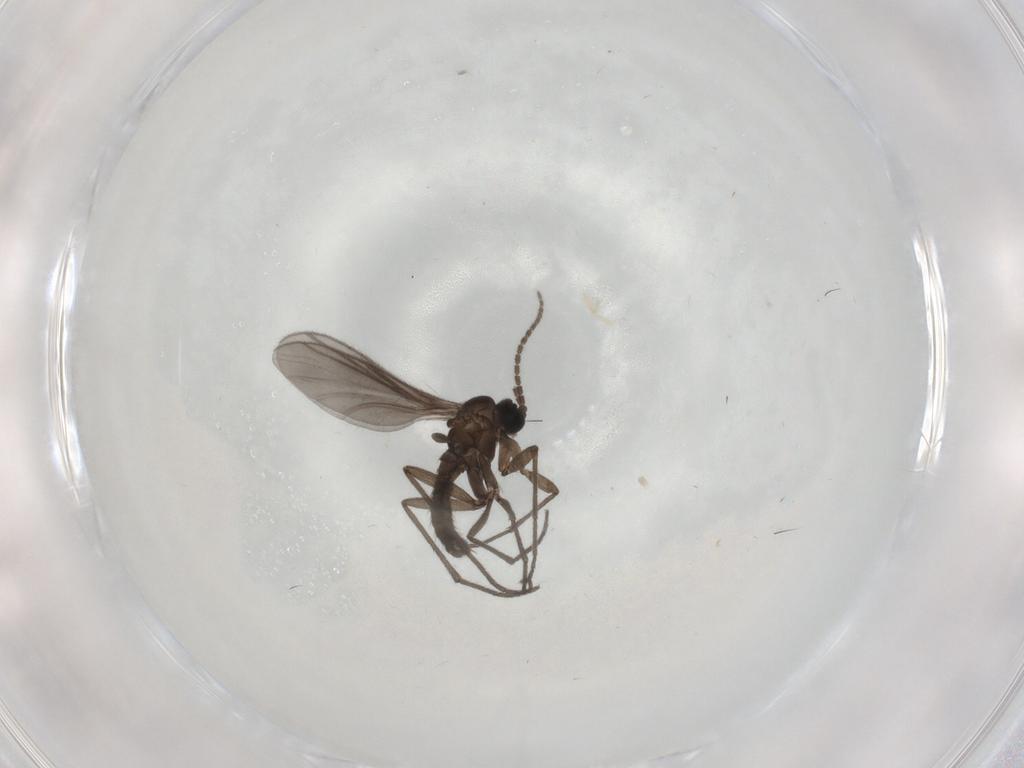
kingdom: Animalia
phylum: Arthropoda
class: Insecta
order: Diptera
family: Sciaridae
